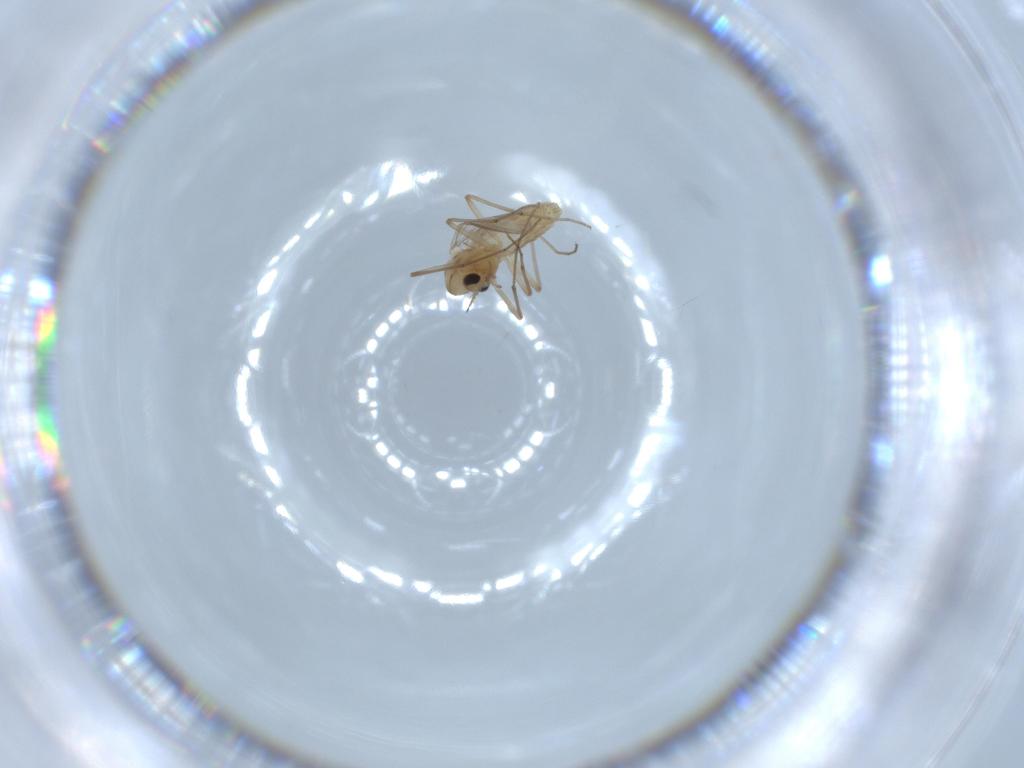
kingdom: Animalia
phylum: Arthropoda
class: Insecta
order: Diptera
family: Chironomidae
